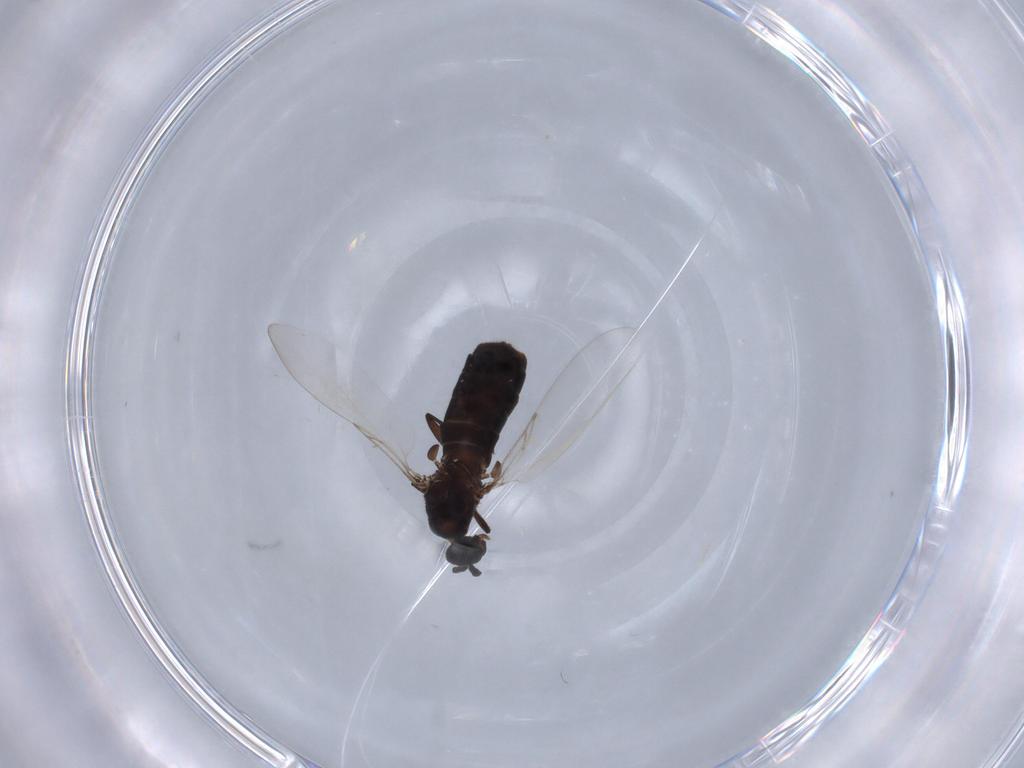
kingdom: Animalia
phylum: Arthropoda
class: Insecta
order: Diptera
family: Scatopsidae
